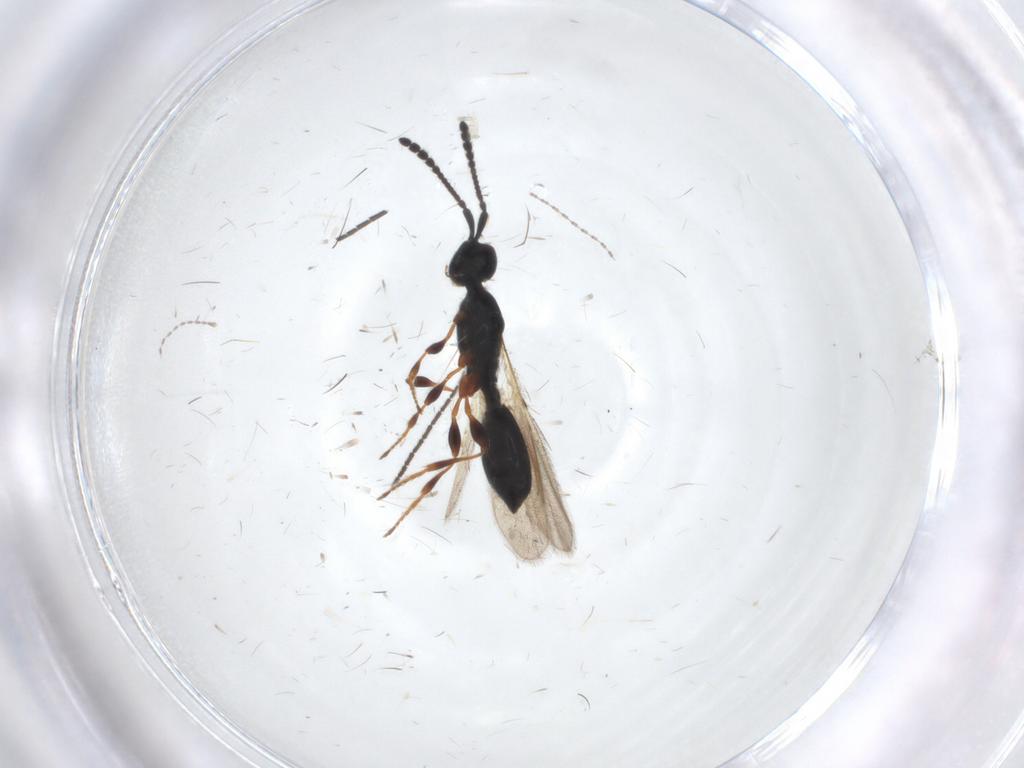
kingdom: Animalia
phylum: Arthropoda
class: Insecta
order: Hymenoptera
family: Diapriidae
